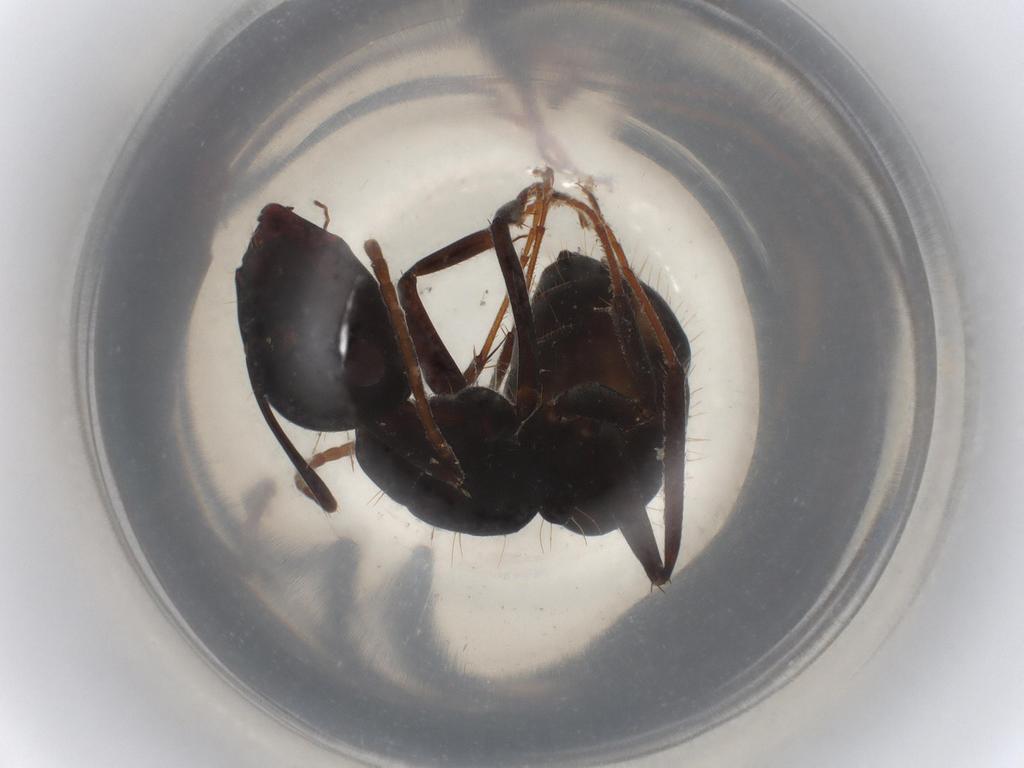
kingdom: Animalia
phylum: Arthropoda
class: Insecta
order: Hymenoptera
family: Formicidae
